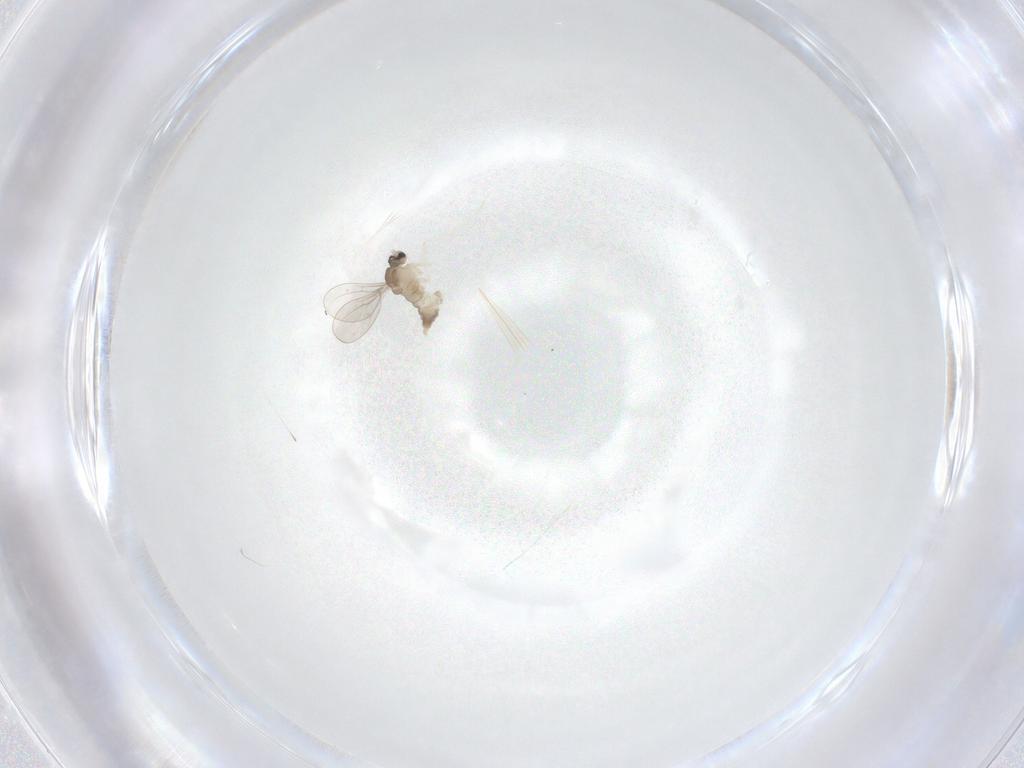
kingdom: Animalia
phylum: Arthropoda
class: Insecta
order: Diptera
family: Cecidomyiidae
